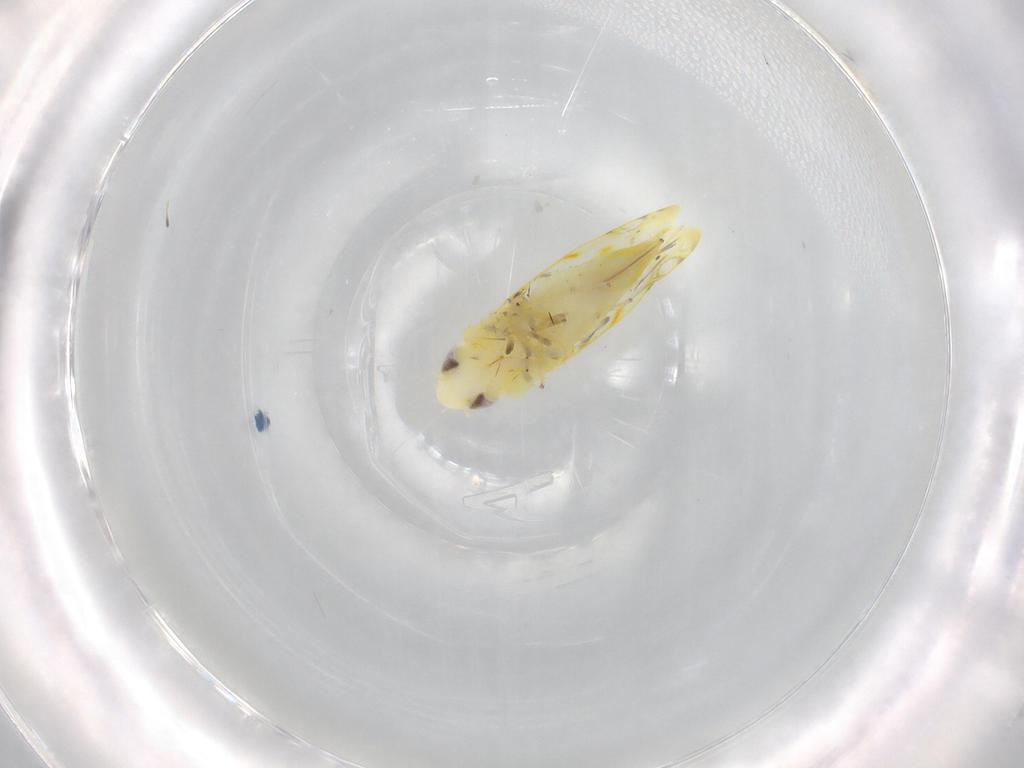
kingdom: Animalia
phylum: Arthropoda
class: Insecta
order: Hemiptera
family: Cicadellidae
